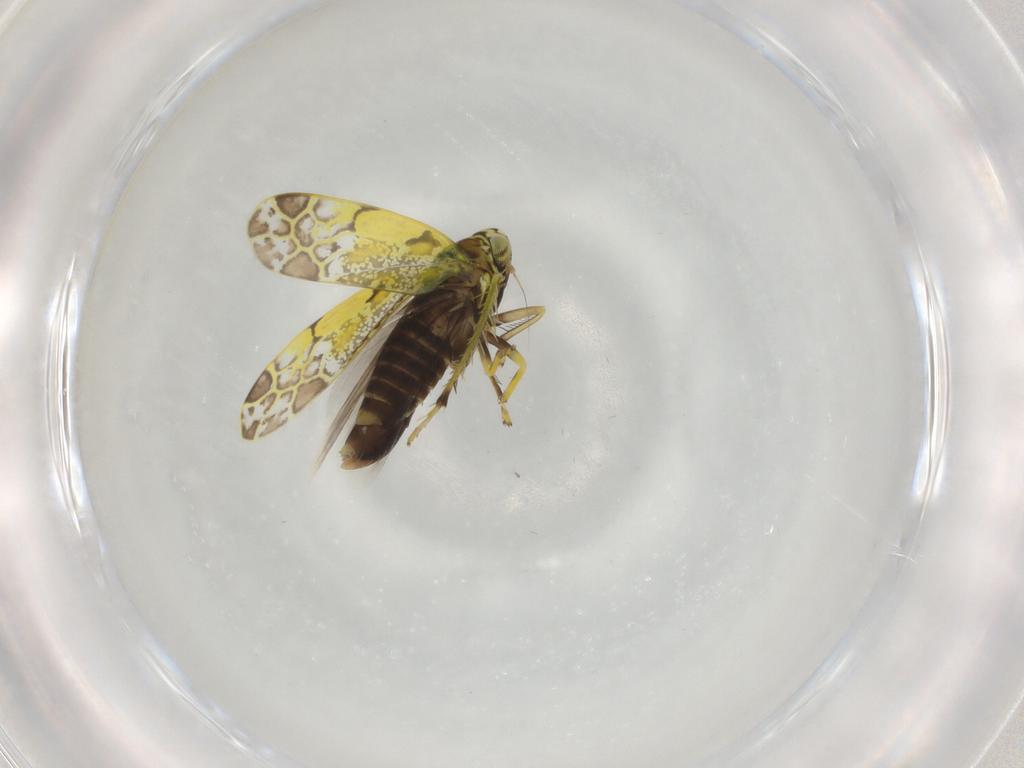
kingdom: Animalia
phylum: Arthropoda
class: Insecta
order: Hemiptera
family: Cicadellidae
